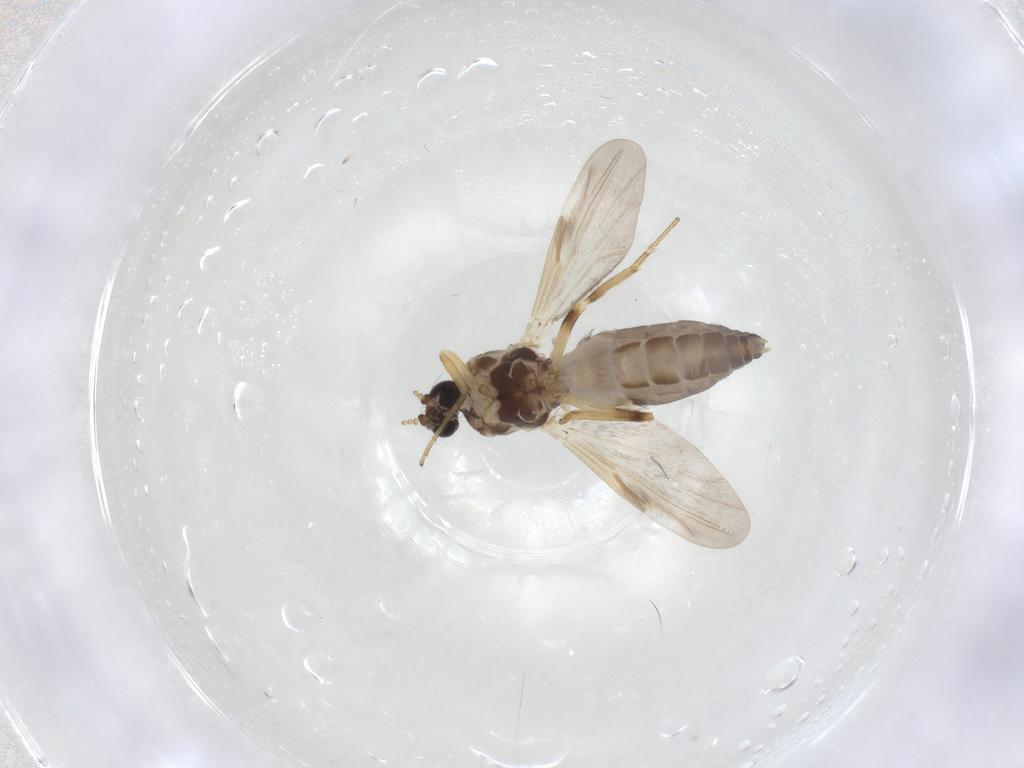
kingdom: Animalia
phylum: Arthropoda
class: Insecta
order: Diptera
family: Ceratopogonidae
